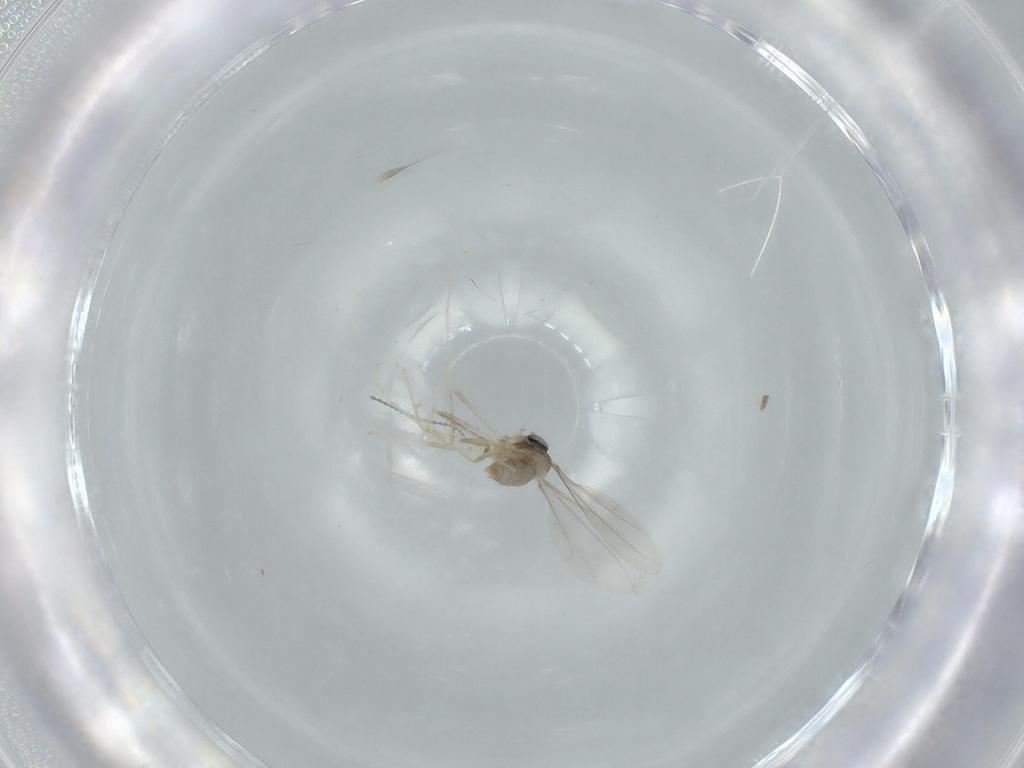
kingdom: Animalia
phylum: Arthropoda
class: Insecta
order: Diptera
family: Cecidomyiidae
